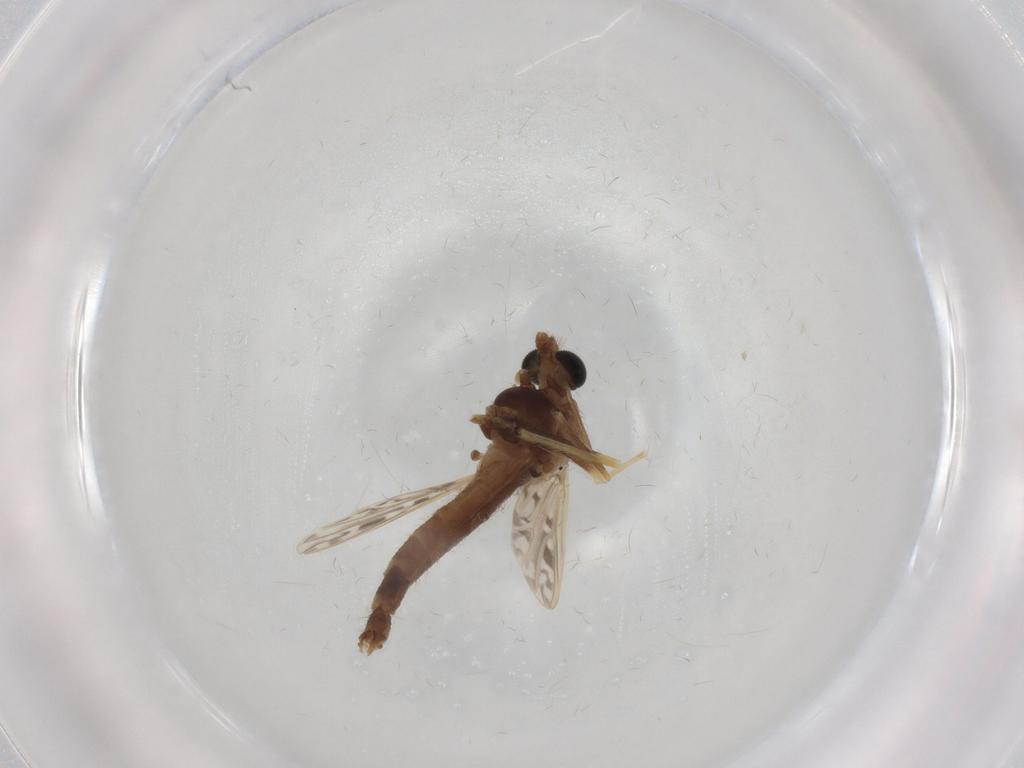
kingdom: Animalia
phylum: Arthropoda
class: Insecta
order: Diptera
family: Chironomidae
